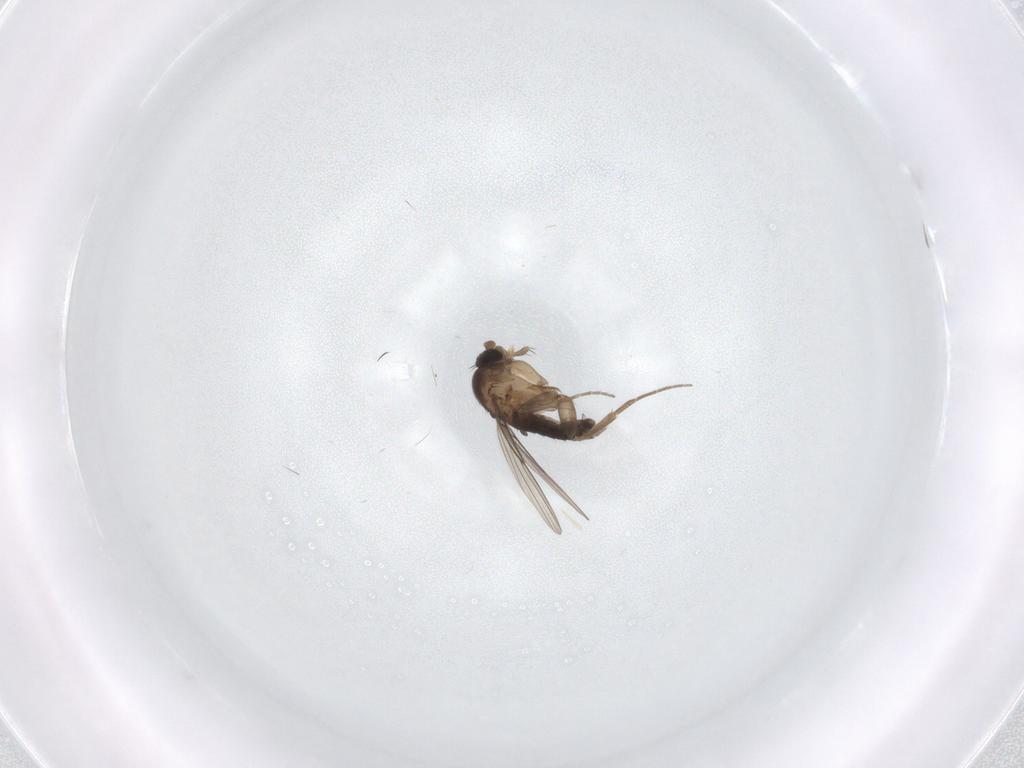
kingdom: Animalia
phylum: Arthropoda
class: Insecta
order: Diptera
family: Phoridae
